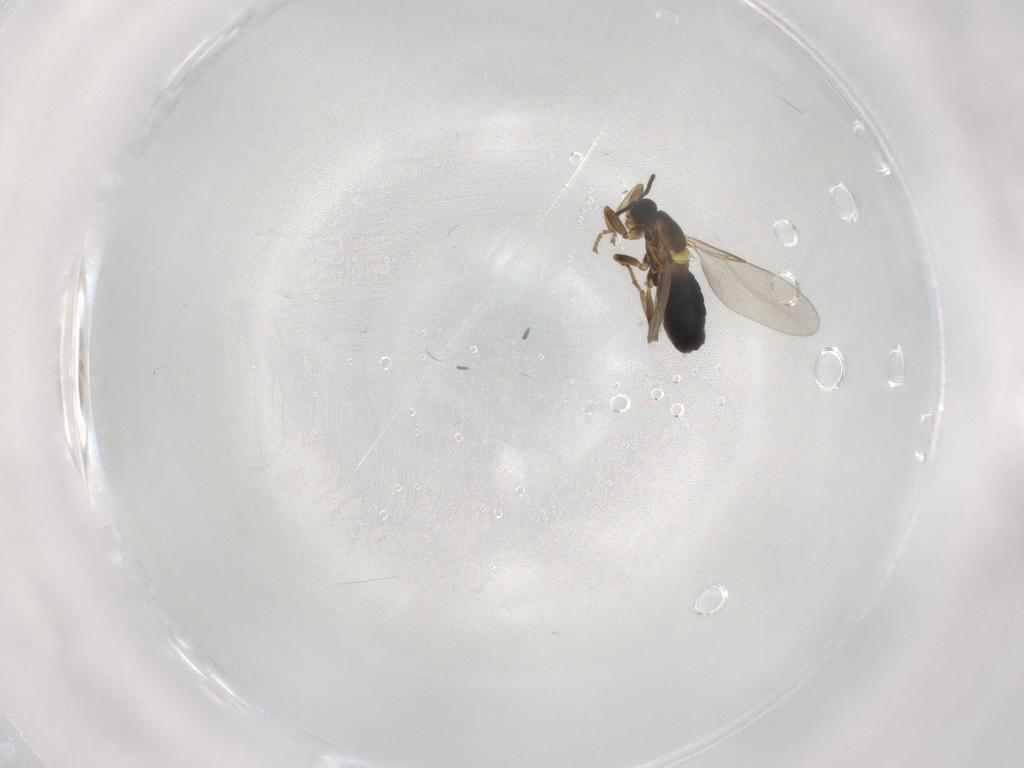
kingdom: Animalia
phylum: Arthropoda
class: Insecta
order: Diptera
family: Scatopsidae
